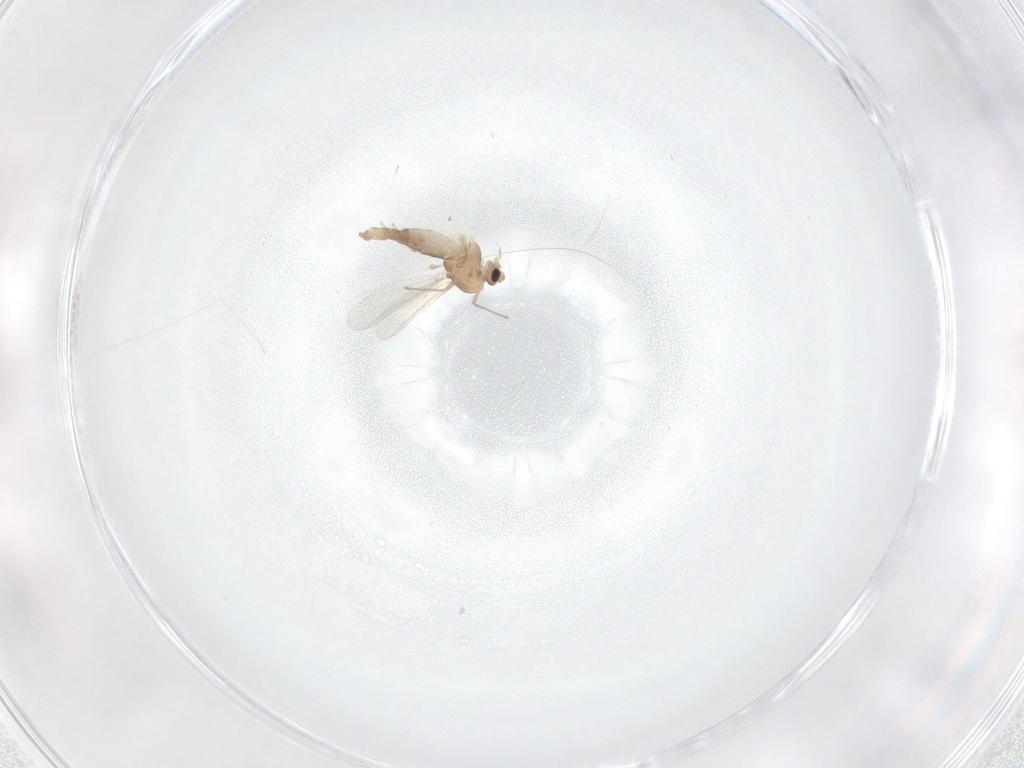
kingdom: Animalia
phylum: Arthropoda
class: Insecta
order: Diptera
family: Chironomidae
